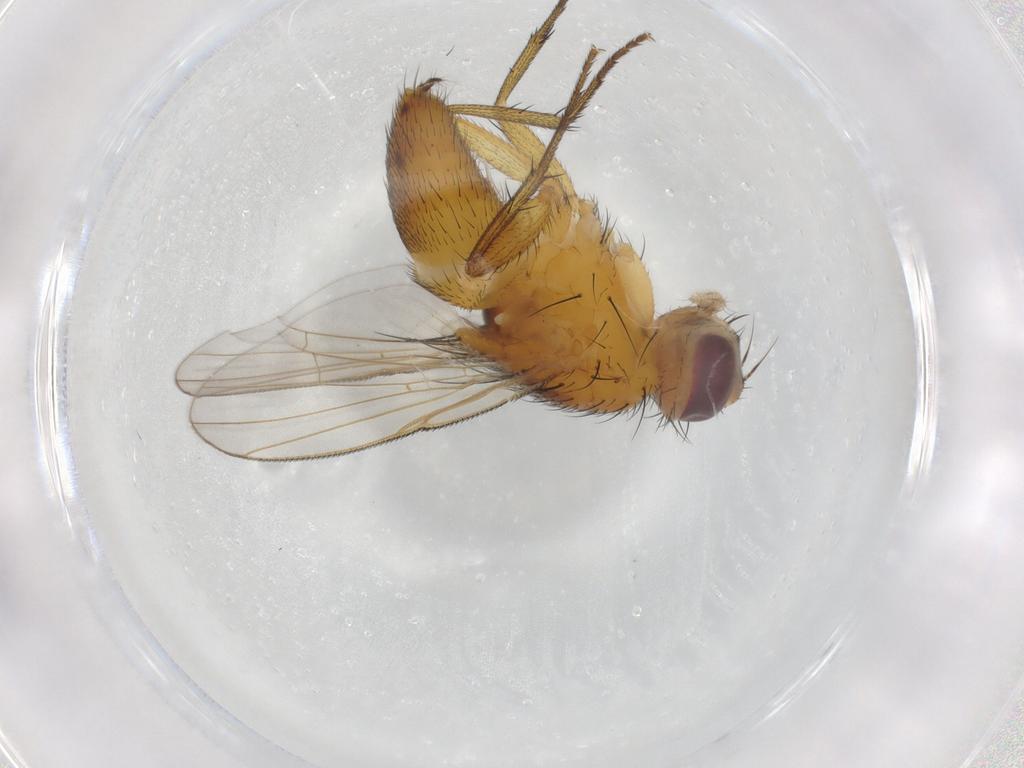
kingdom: Animalia
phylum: Arthropoda
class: Insecta
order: Diptera
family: Muscidae
